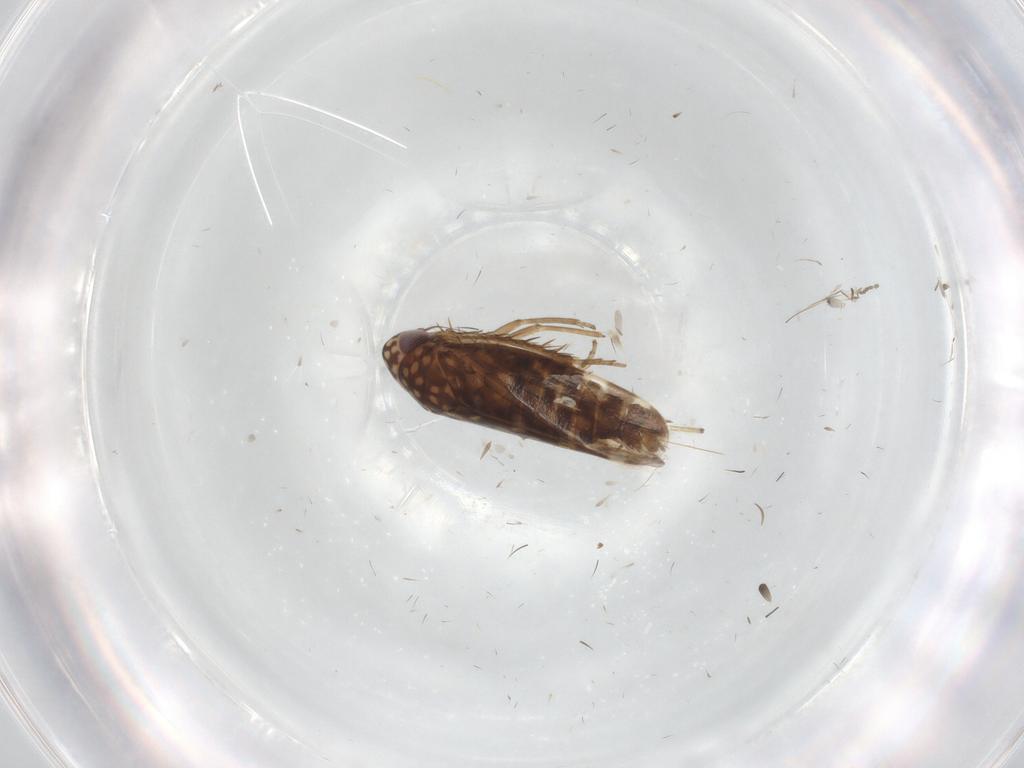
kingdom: Animalia
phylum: Arthropoda
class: Insecta
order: Hemiptera
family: Cicadellidae
